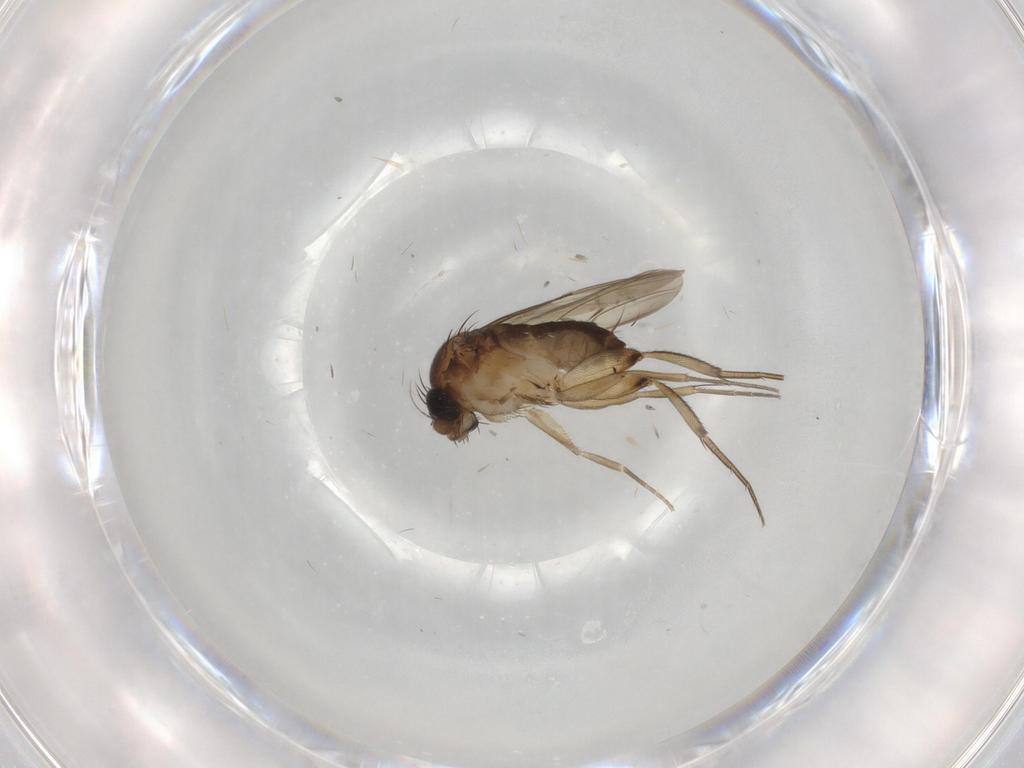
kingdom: Animalia
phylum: Arthropoda
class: Insecta
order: Diptera
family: Phoridae
